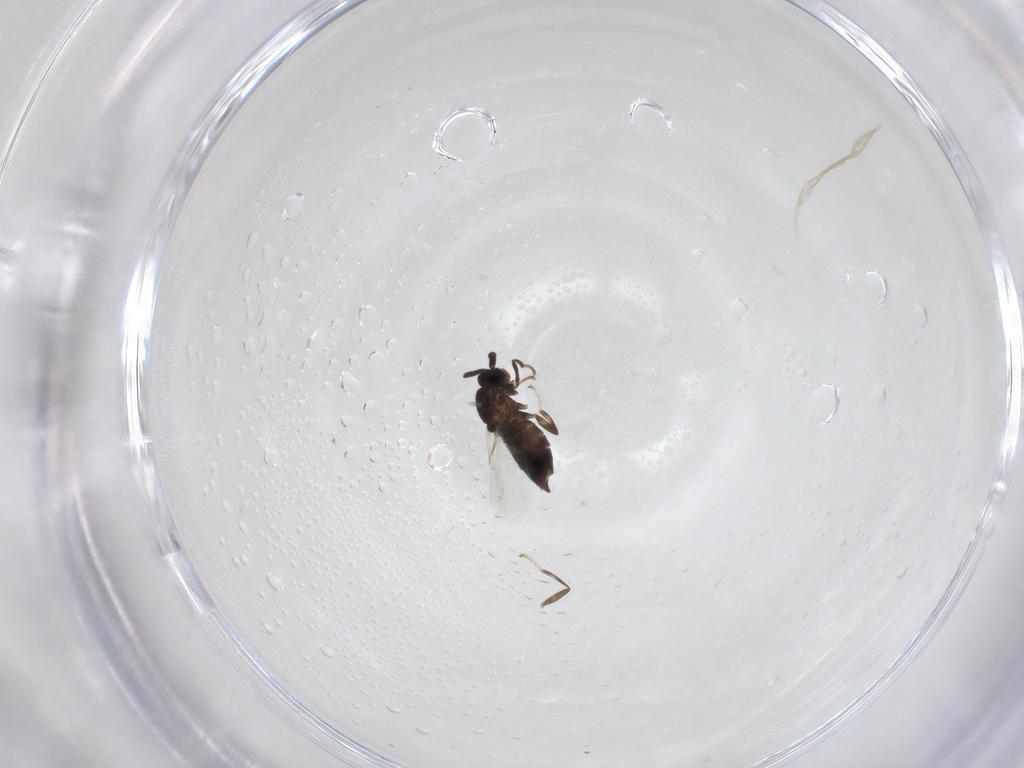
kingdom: Animalia
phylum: Arthropoda
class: Insecta
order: Diptera
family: Scatopsidae
